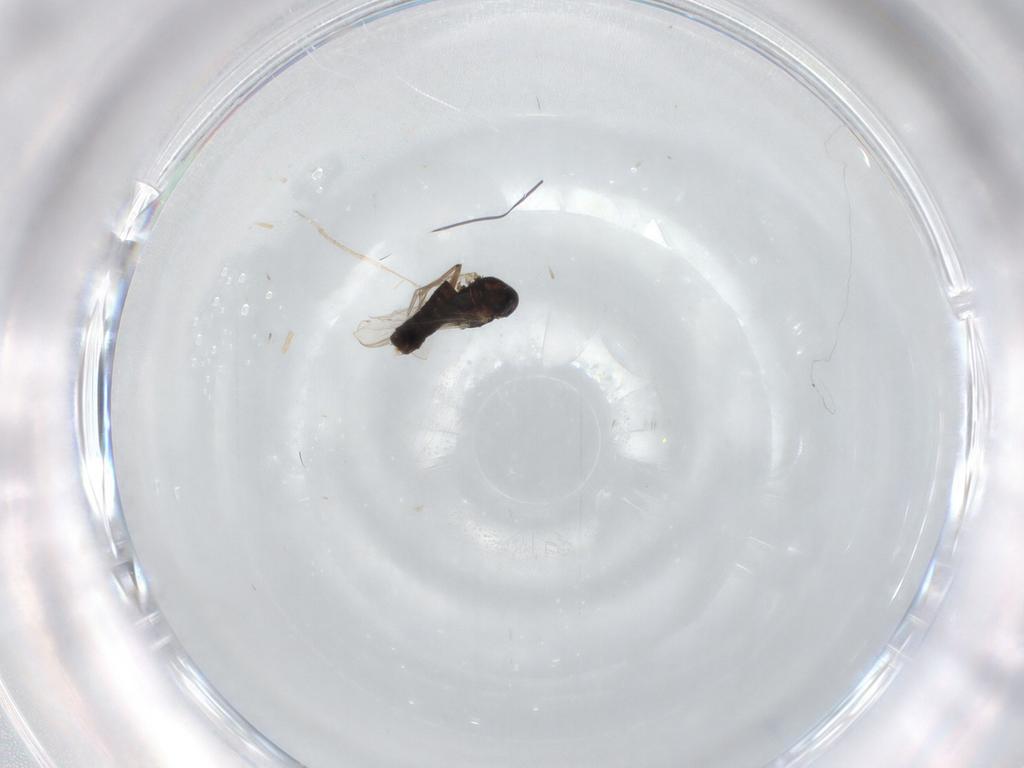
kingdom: Animalia
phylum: Arthropoda
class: Insecta
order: Diptera
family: Chironomidae
